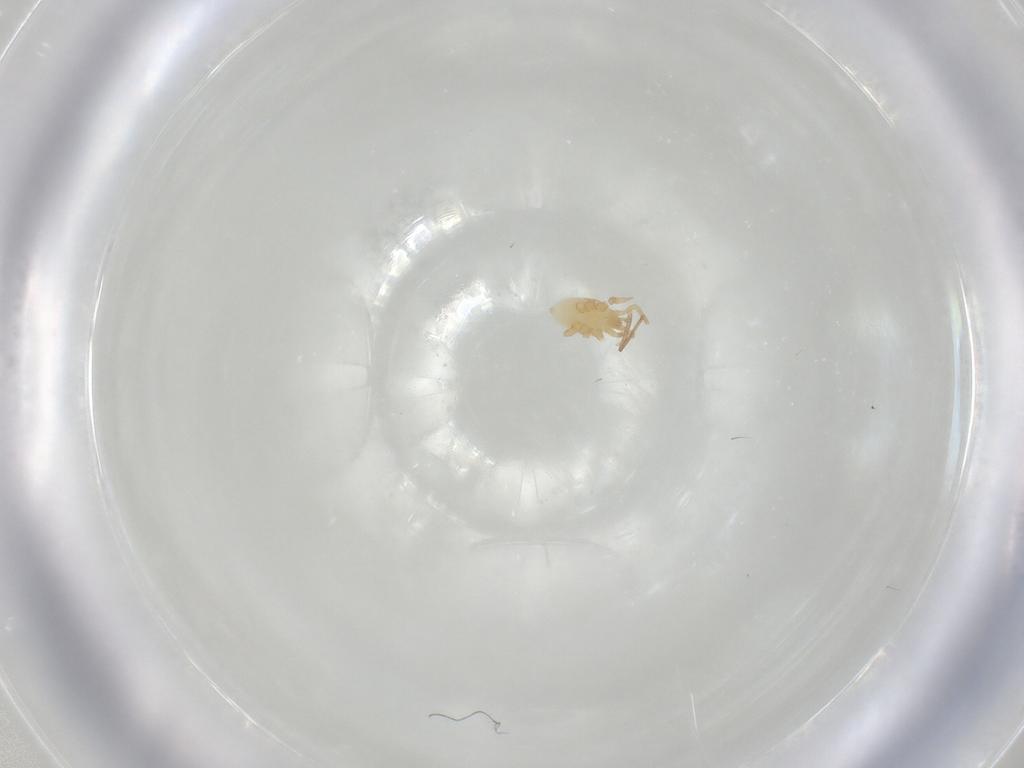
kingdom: Animalia
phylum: Arthropoda
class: Arachnida
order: Mesostigmata
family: Parasitidae
